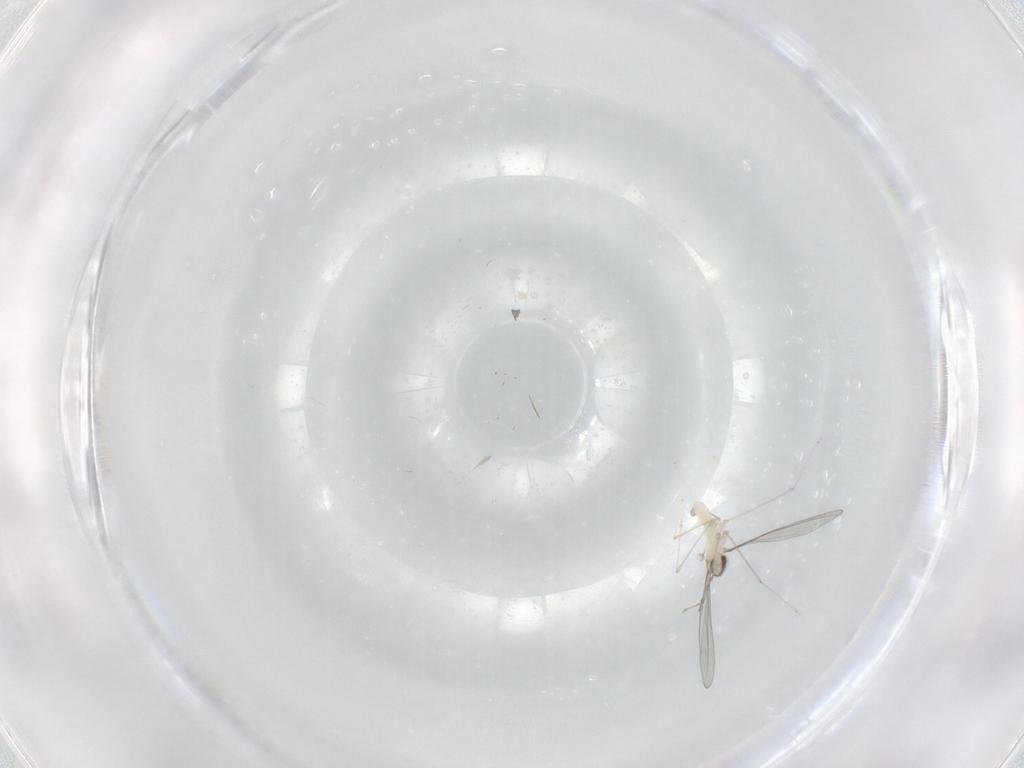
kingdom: Animalia
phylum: Arthropoda
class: Insecta
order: Diptera
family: Cecidomyiidae
